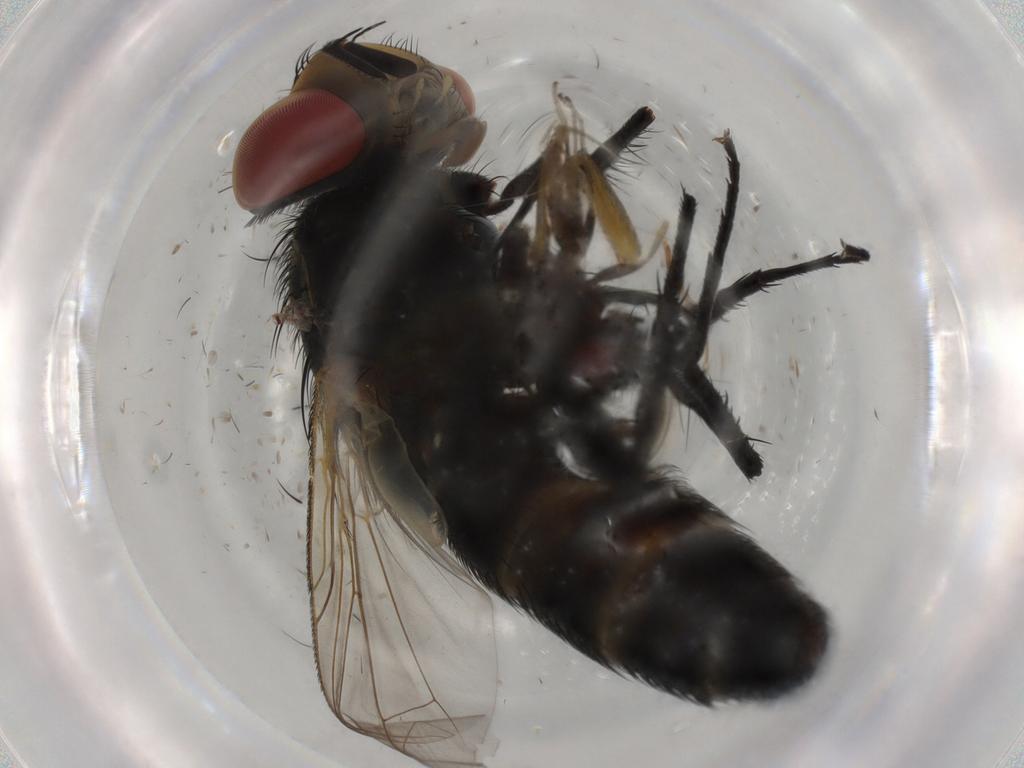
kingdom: Animalia
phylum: Arthropoda
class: Insecta
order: Diptera
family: Anthomyiidae
